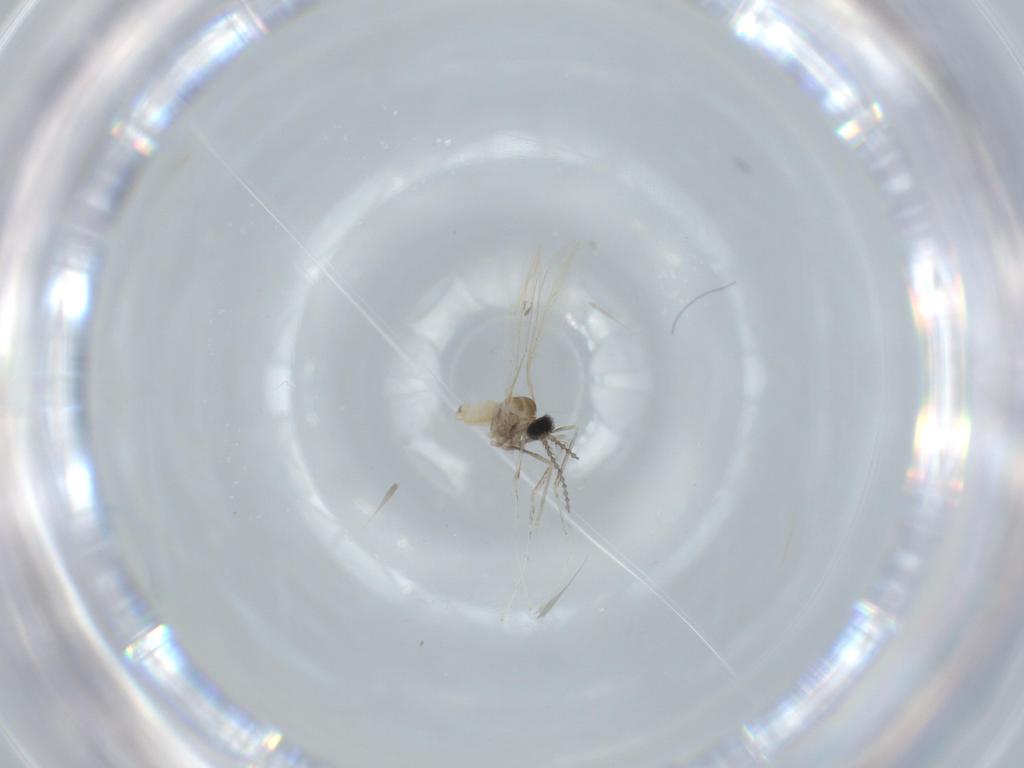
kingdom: Animalia
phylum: Arthropoda
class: Insecta
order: Diptera
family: Cecidomyiidae
